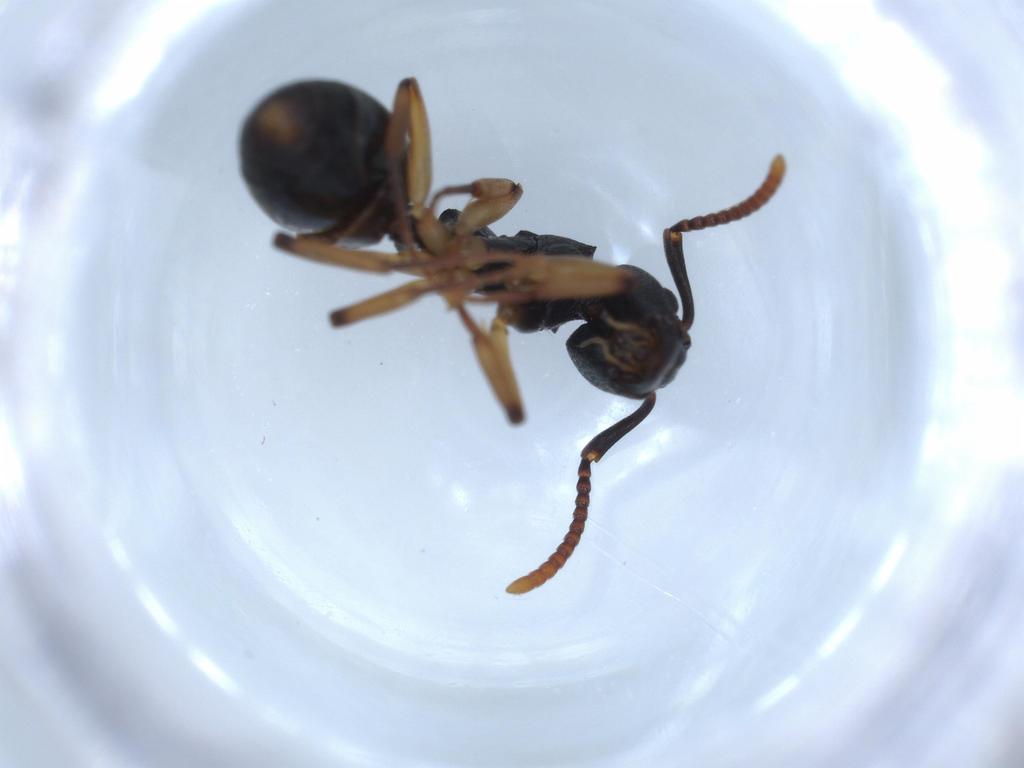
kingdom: Animalia
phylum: Arthropoda
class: Insecta
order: Hymenoptera
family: Formicidae
